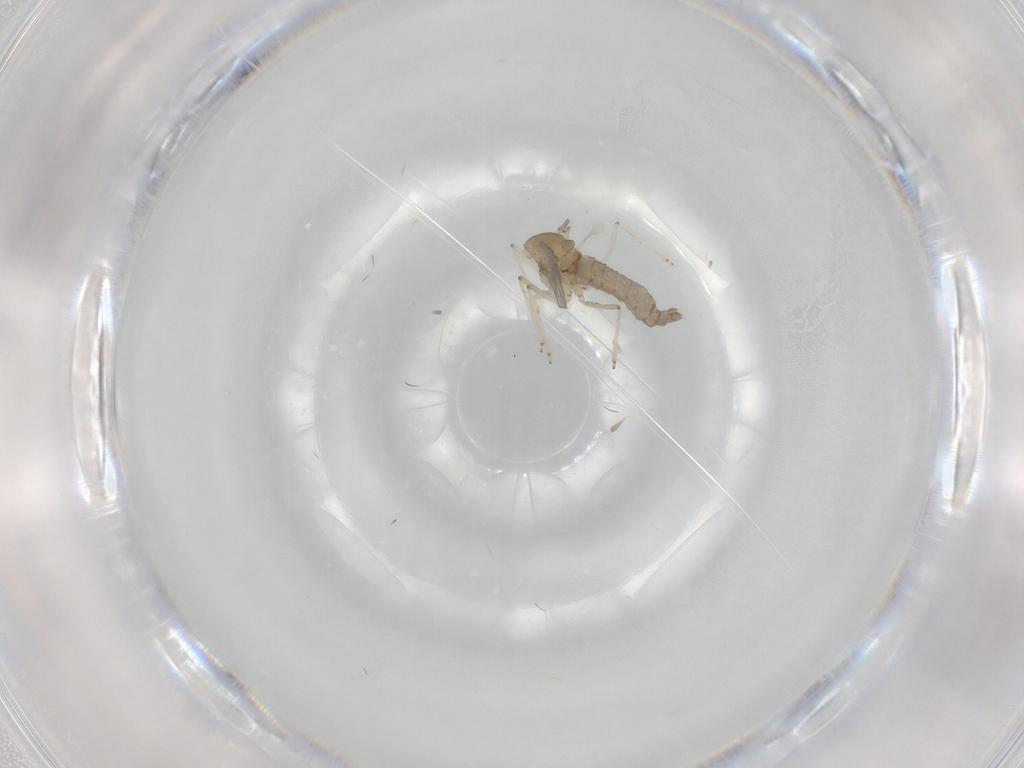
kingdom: Animalia
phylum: Arthropoda
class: Insecta
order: Diptera
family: Cecidomyiidae
